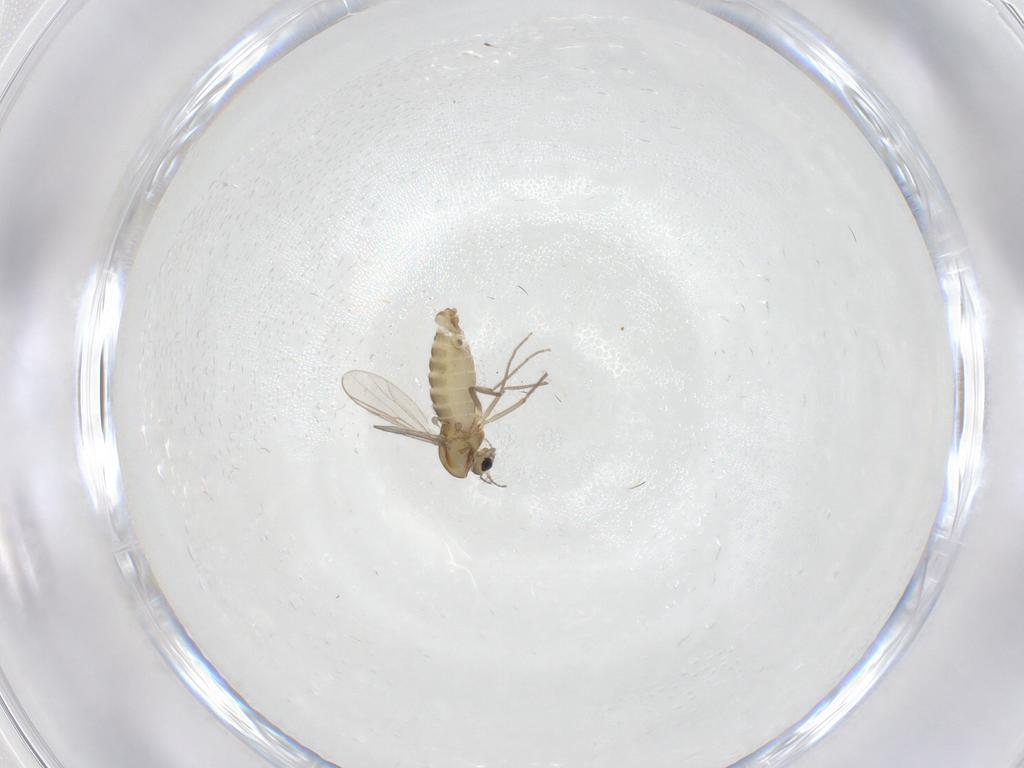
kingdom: Animalia
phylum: Arthropoda
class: Insecta
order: Diptera
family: Chironomidae
